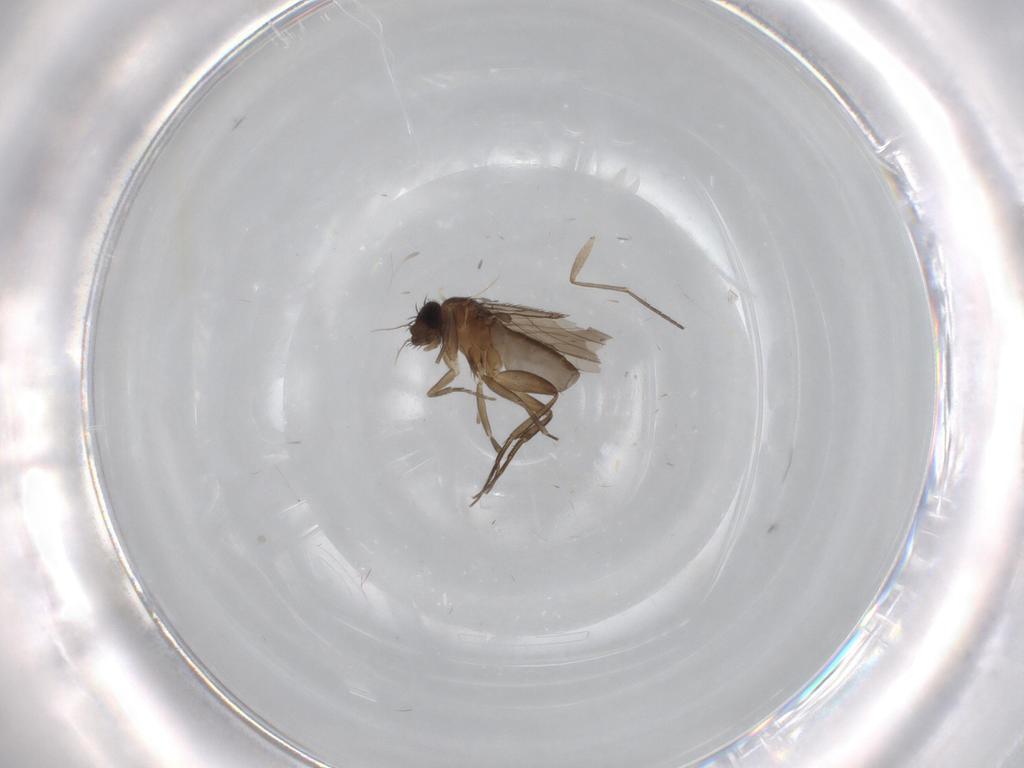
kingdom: Animalia
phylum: Arthropoda
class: Insecta
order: Diptera
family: Phoridae
